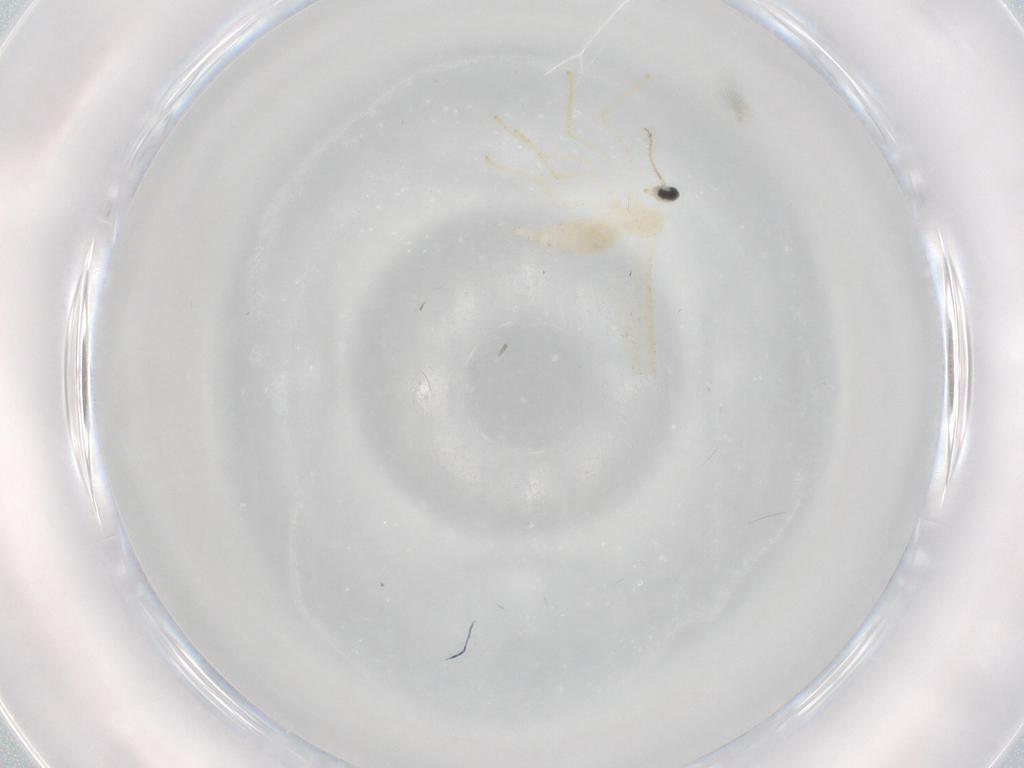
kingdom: Animalia
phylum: Arthropoda
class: Insecta
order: Diptera
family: Cecidomyiidae
